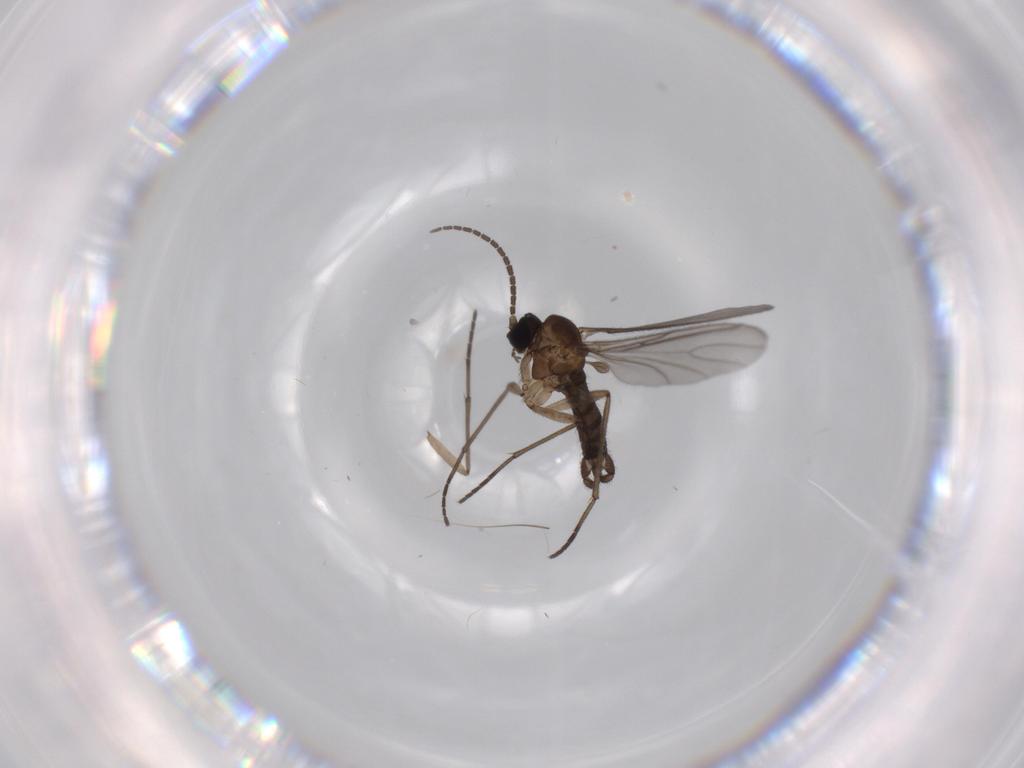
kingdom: Animalia
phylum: Arthropoda
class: Insecta
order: Diptera
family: Sciaridae
